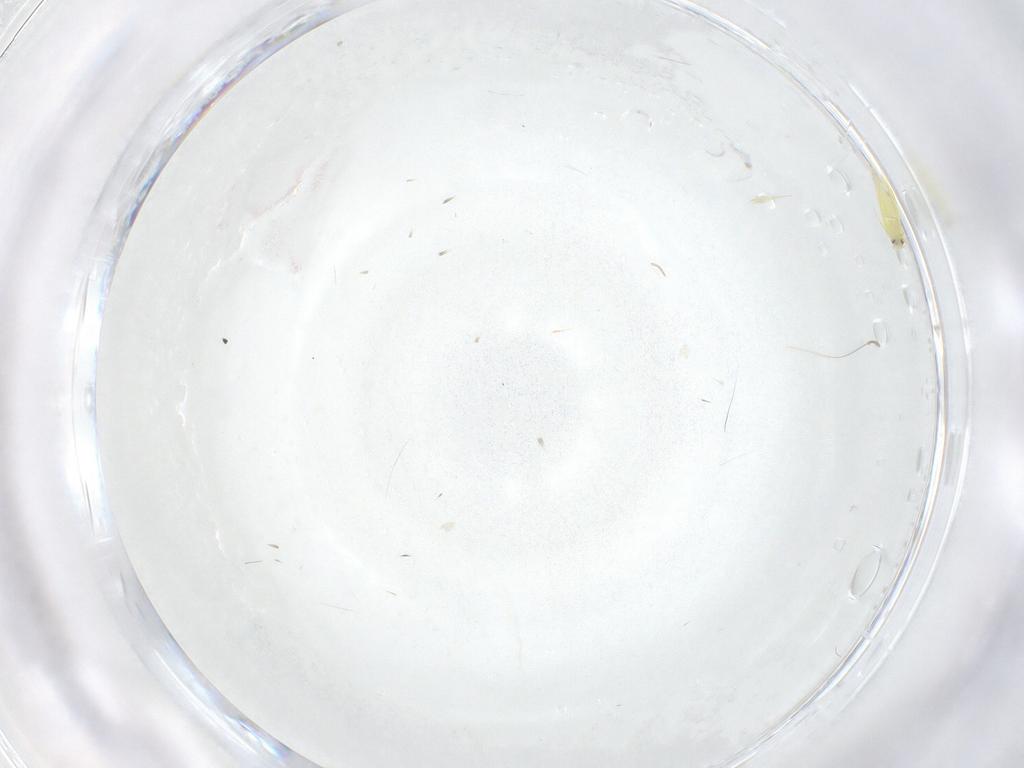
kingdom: Animalia
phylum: Arthropoda
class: Insecta
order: Diptera
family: Cecidomyiidae
